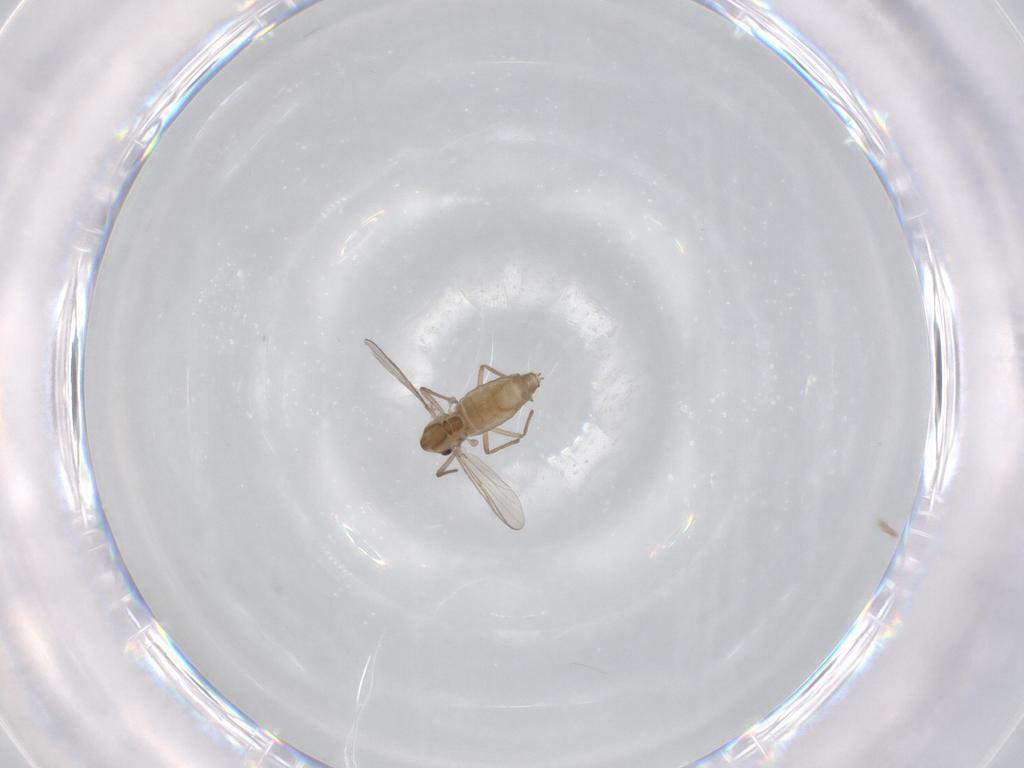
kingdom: Animalia
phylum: Arthropoda
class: Insecta
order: Diptera
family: Chironomidae
